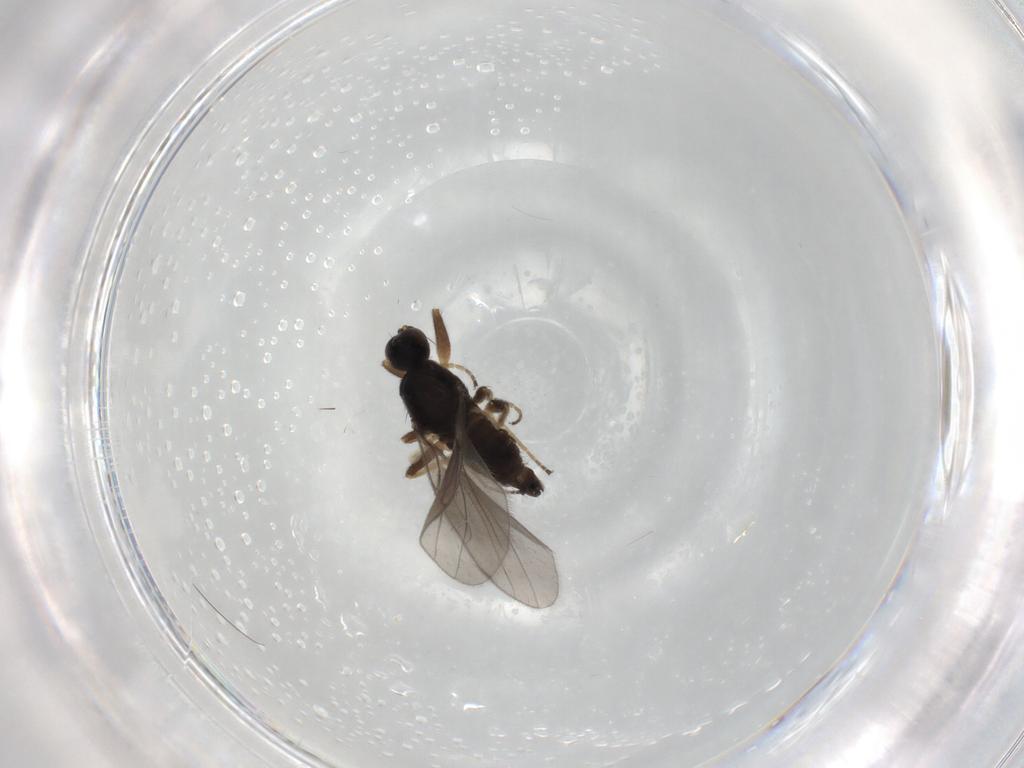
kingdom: Animalia
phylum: Arthropoda
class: Insecta
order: Diptera
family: Hybotidae
